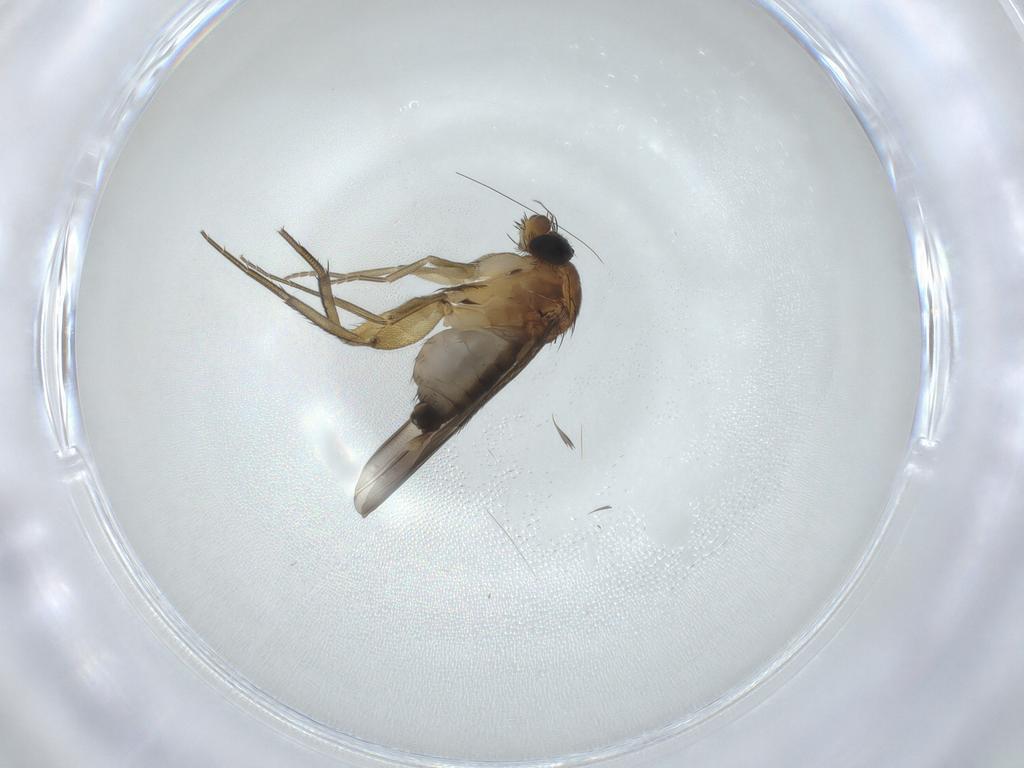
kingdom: Animalia
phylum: Arthropoda
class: Insecta
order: Diptera
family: Phoridae
